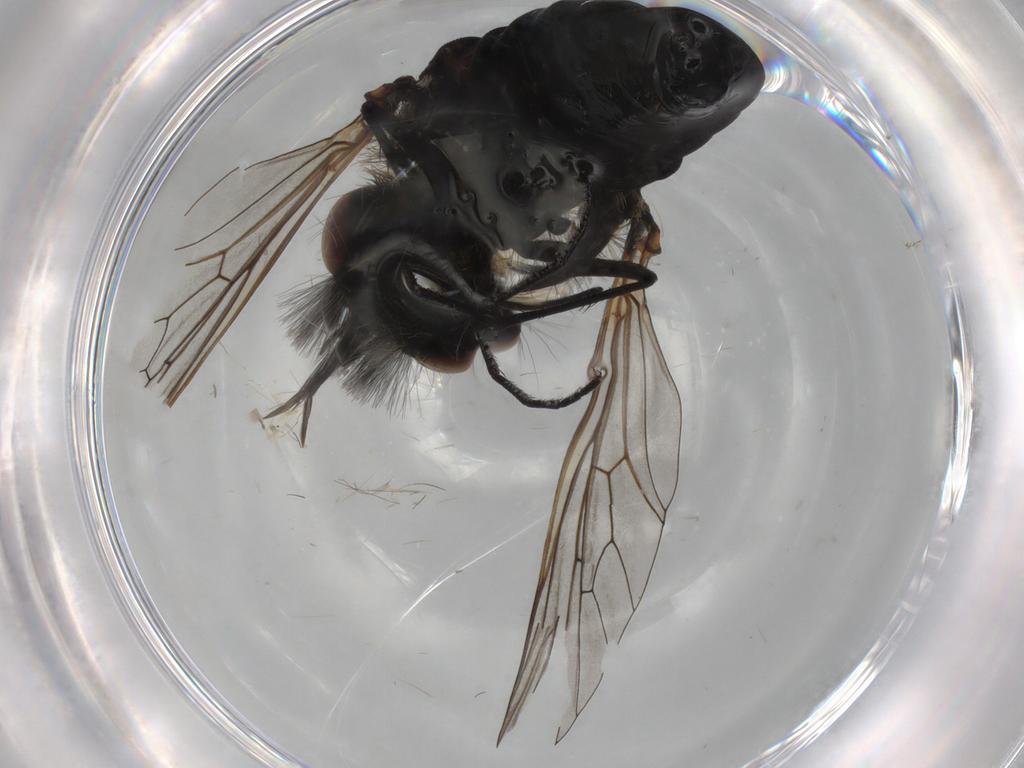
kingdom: Animalia
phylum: Arthropoda
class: Insecta
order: Diptera
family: Bombyliidae
